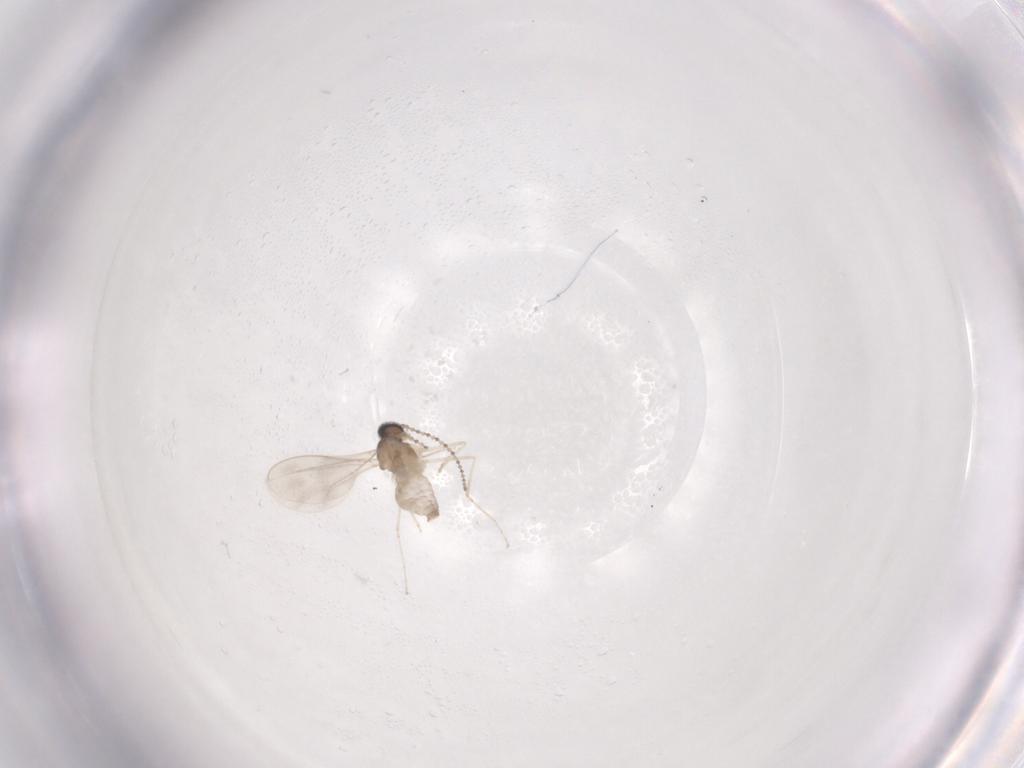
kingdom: Animalia
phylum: Arthropoda
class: Insecta
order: Diptera
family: Cecidomyiidae
